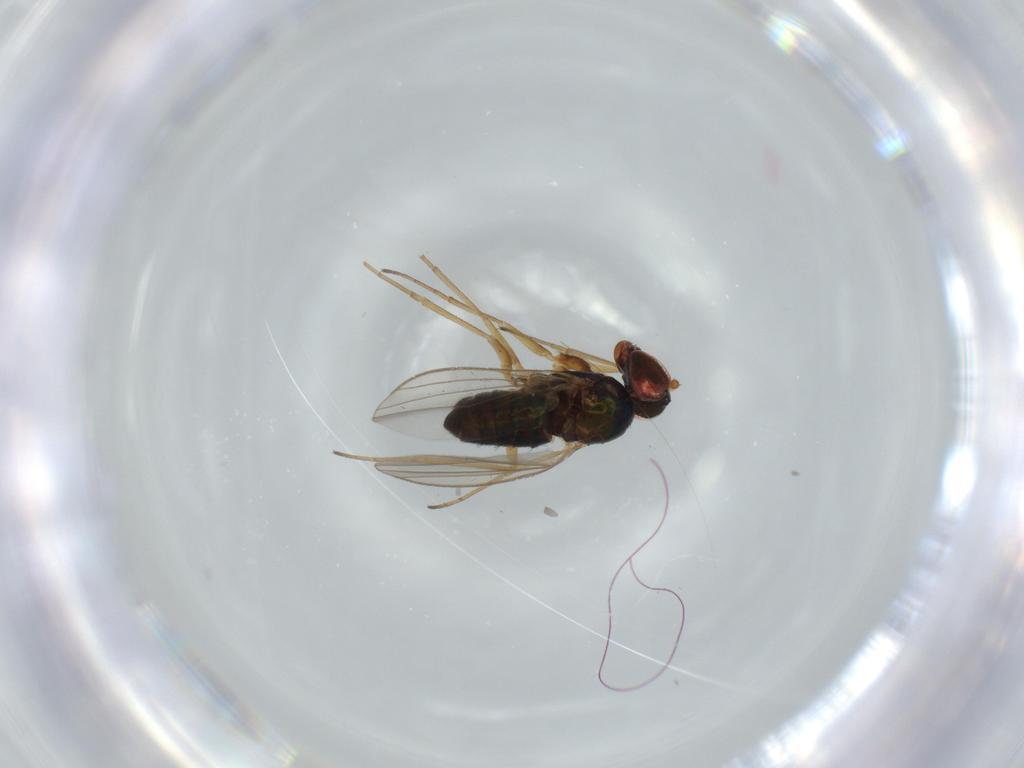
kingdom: Animalia
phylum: Arthropoda
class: Insecta
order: Diptera
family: Dolichopodidae
